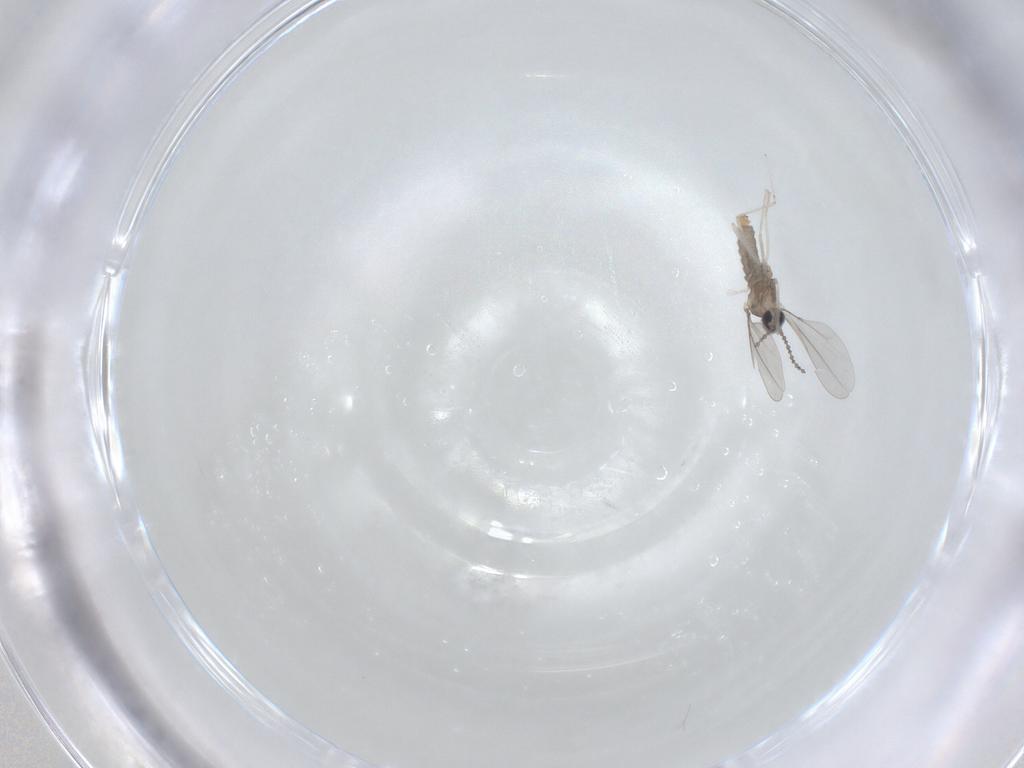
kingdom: Animalia
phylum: Arthropoda
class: Insecta
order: Diptera
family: Cecidomyiidae
